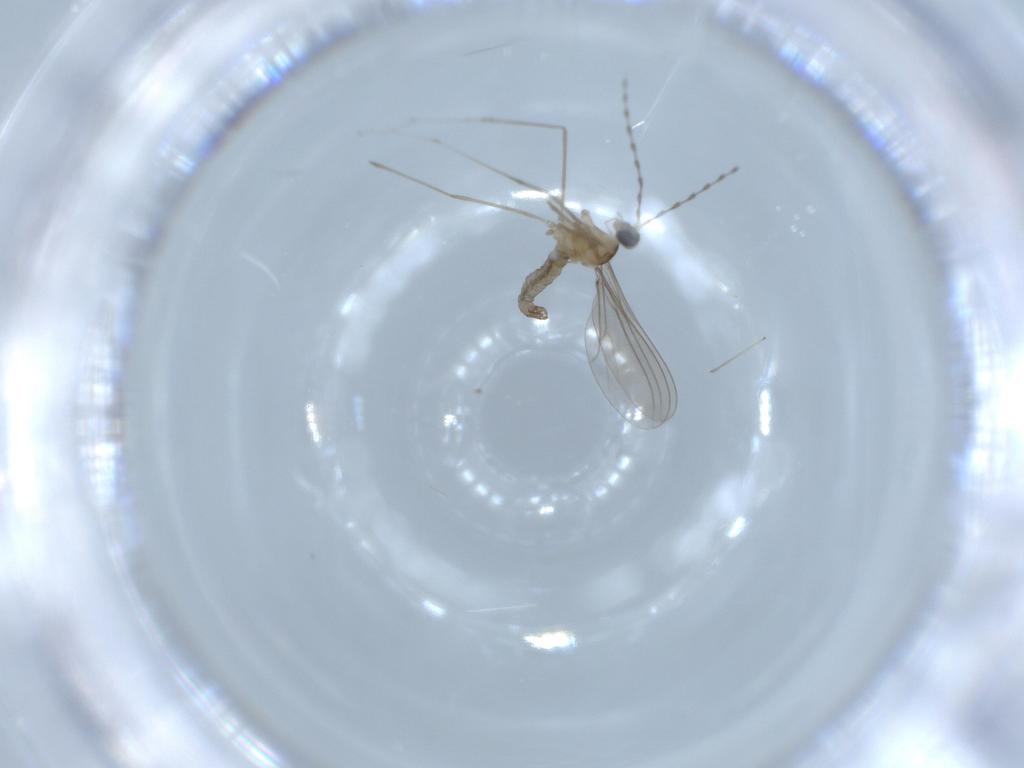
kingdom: Animalia
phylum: Arthropoda
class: Insecta
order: Diptera
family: Cecidomyiidae
